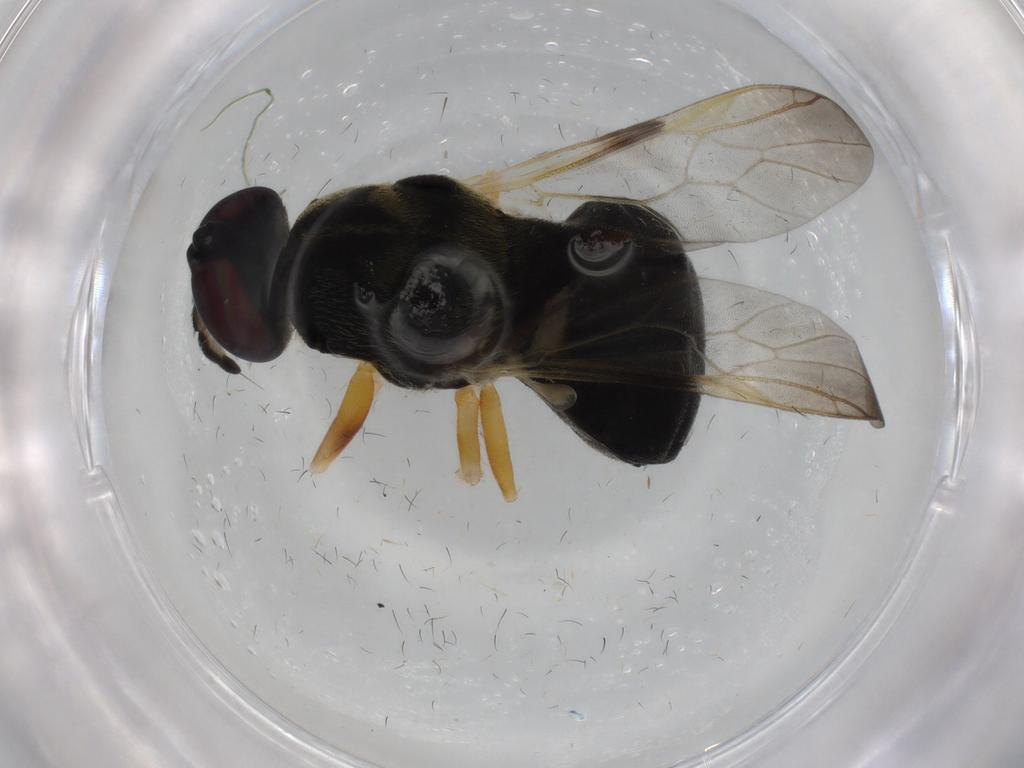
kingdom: Animalia
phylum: Arthropoda
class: Insecta
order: Diptera
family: Stratiomyidae
